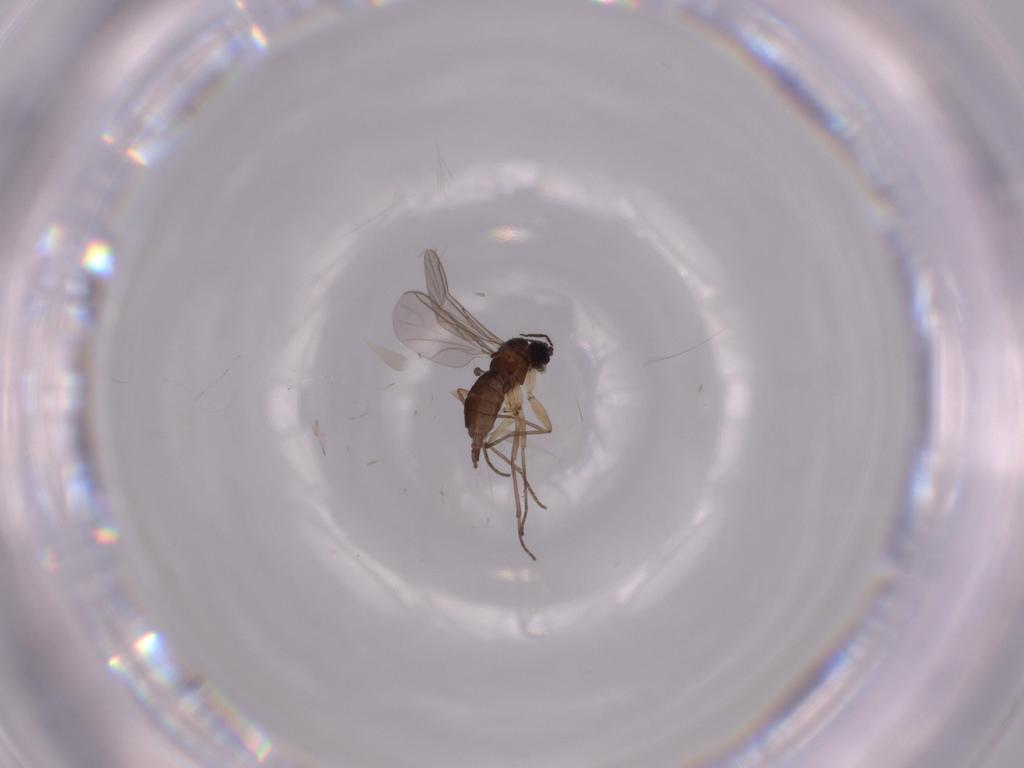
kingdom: Animalia
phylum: Arthropoda
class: Insecta
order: Diptera
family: Sciaridae
